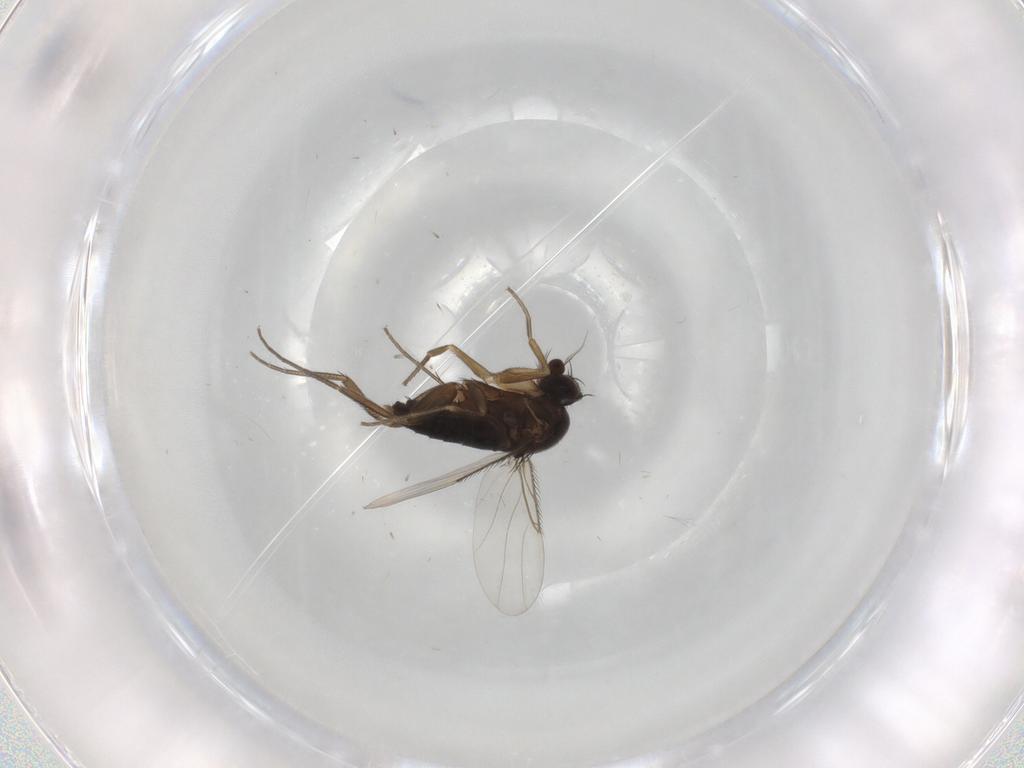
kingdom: Animalia
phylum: Arthropoda
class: Insecta
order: Diptera
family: Phoridae
